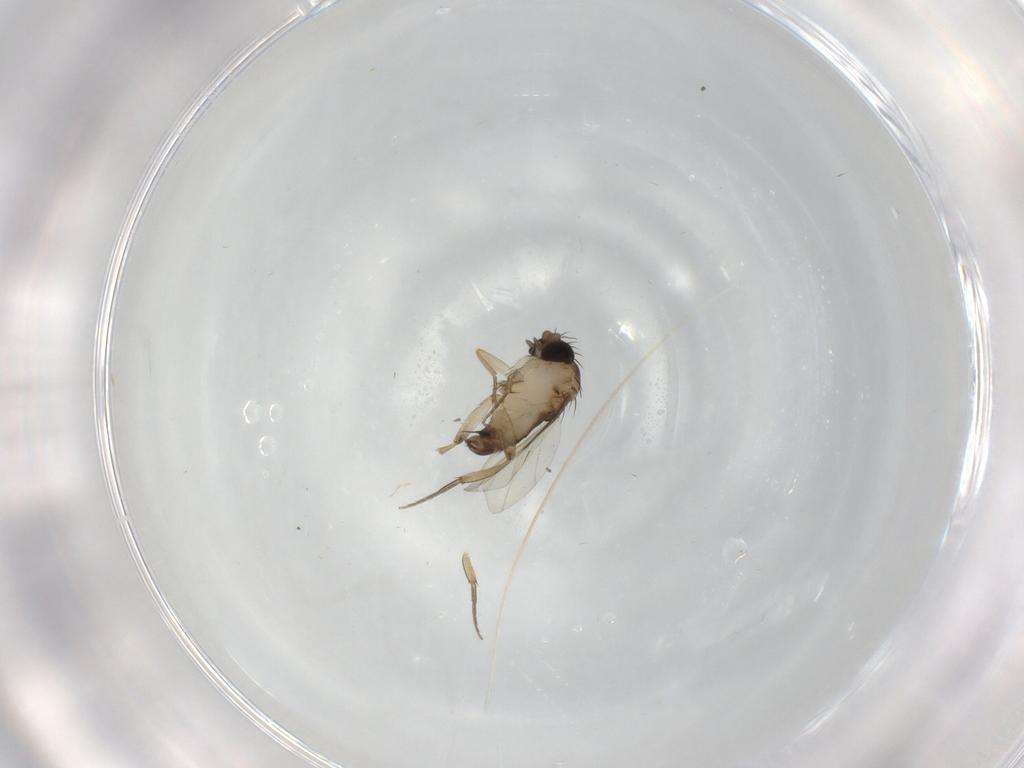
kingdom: Animalia
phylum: Arthropoda
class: Insecta
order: Diptera
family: Phoridae
